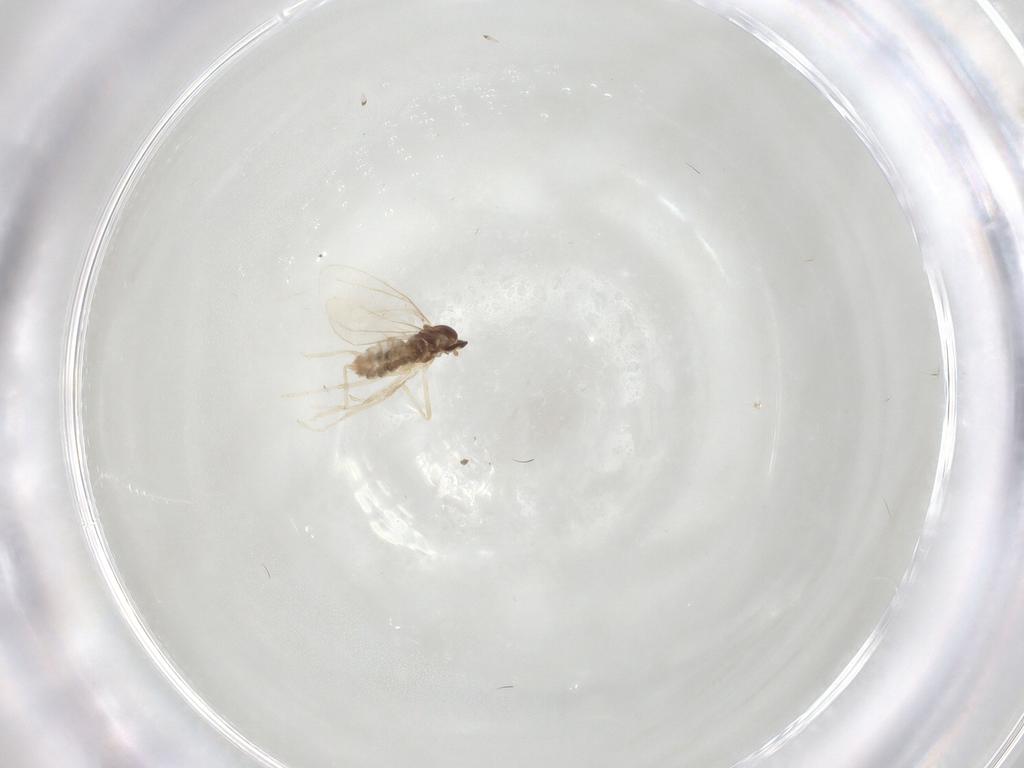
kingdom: Animalia
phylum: Arthropoda
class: Insecta
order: Diptera
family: Cecidomyiidae
